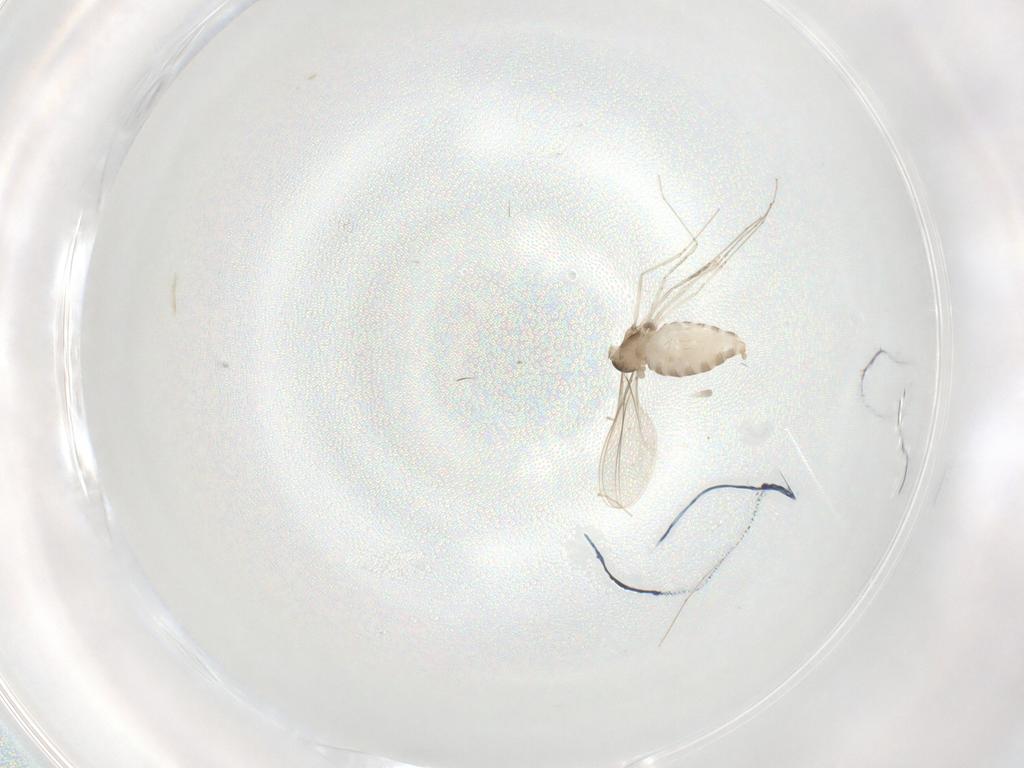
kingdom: Animalia
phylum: Arthropoda
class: Insecta
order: Diptera
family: Cecidomyiidae
